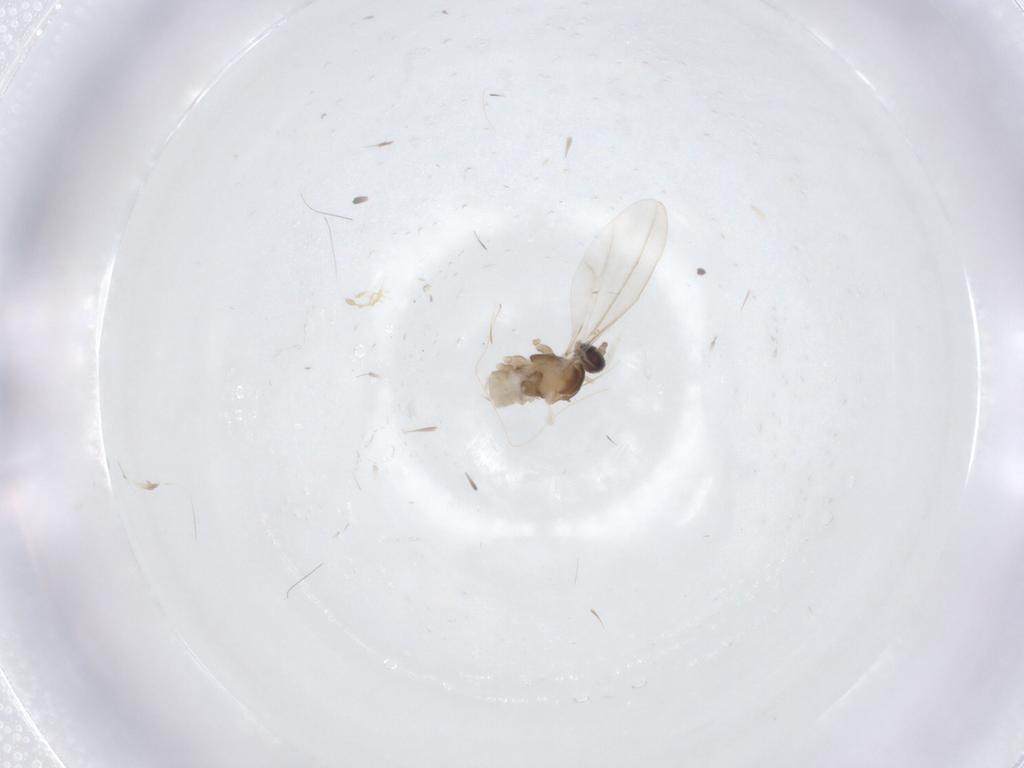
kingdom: Animalia
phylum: Arthropoda
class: Insecta
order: Diptera
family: Cecidomyiidae
